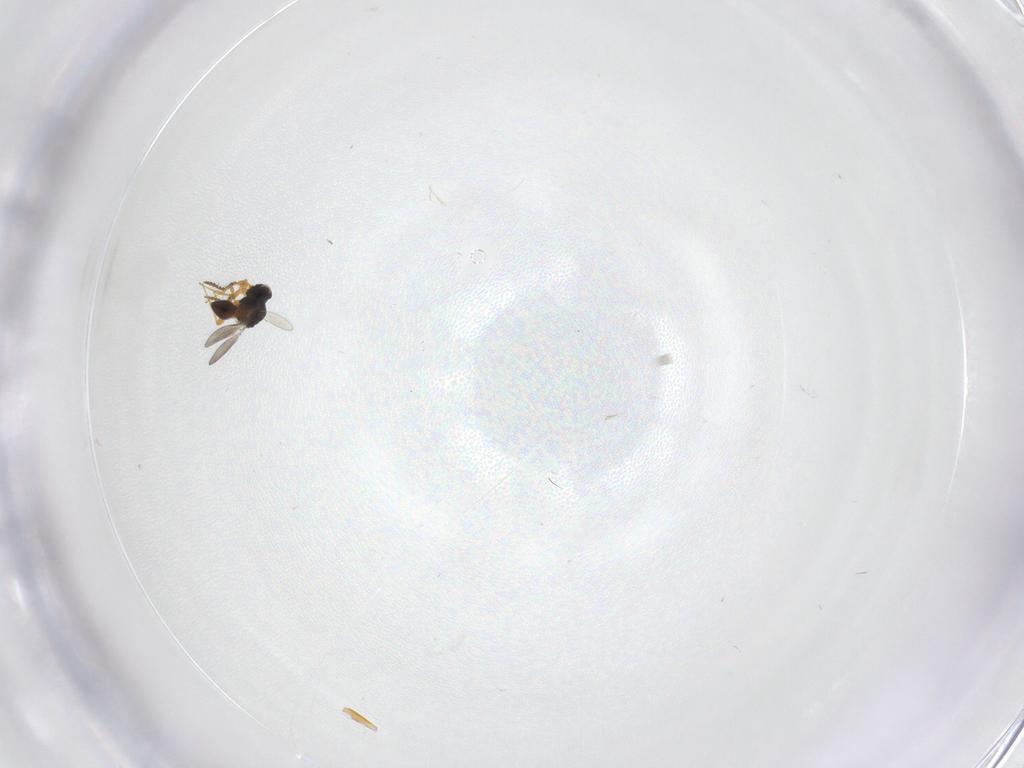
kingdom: Animalia
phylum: Arthropoda
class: Insecta
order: Hymenoptera
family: Platygastridae
